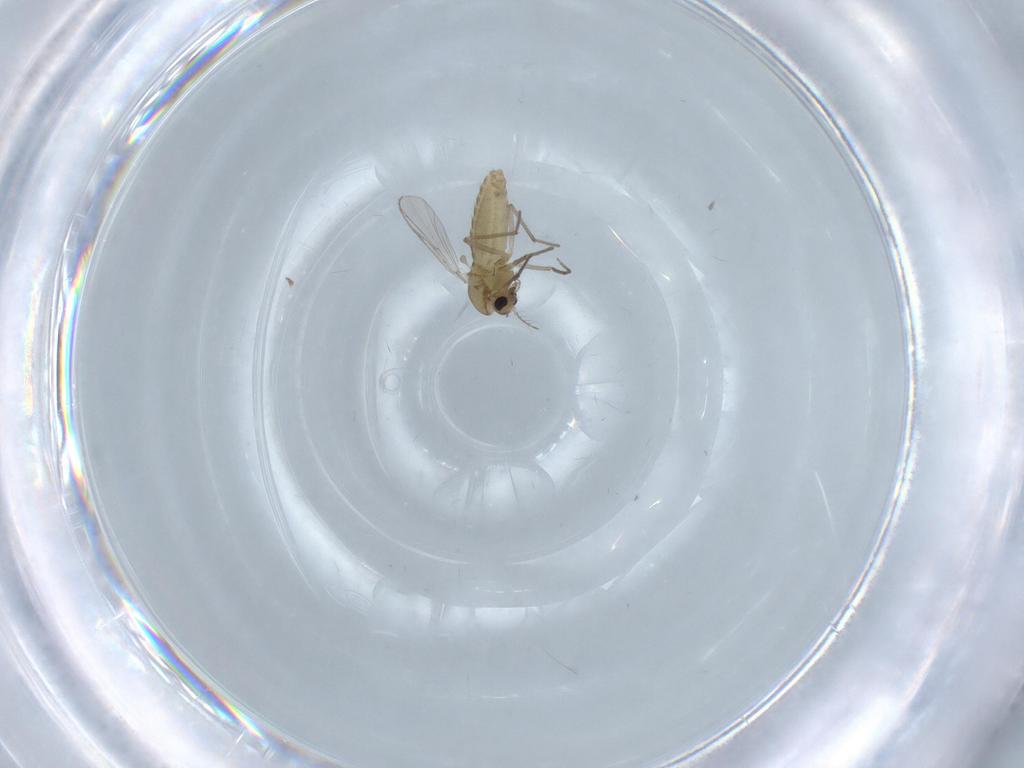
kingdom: Animalia
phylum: Arthropoda
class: Insecta
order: Diptera
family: Chironomidae
